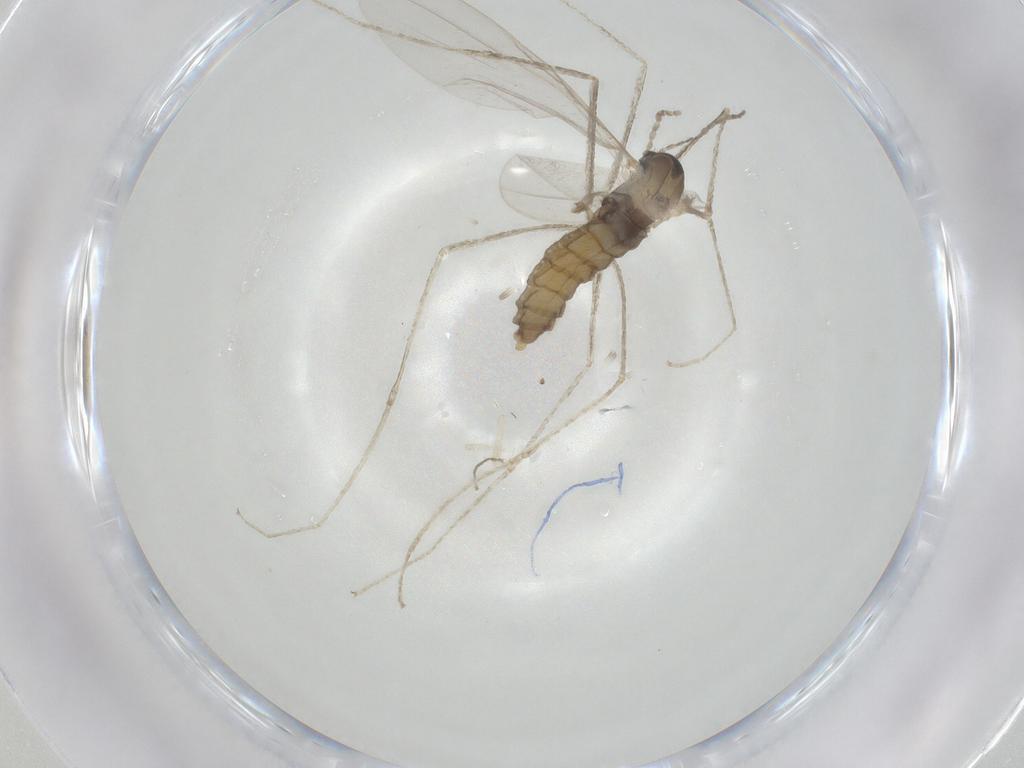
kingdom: Animalia
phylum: Arthropoda
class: Insecta
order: Diptera
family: Cecidomyiidae
